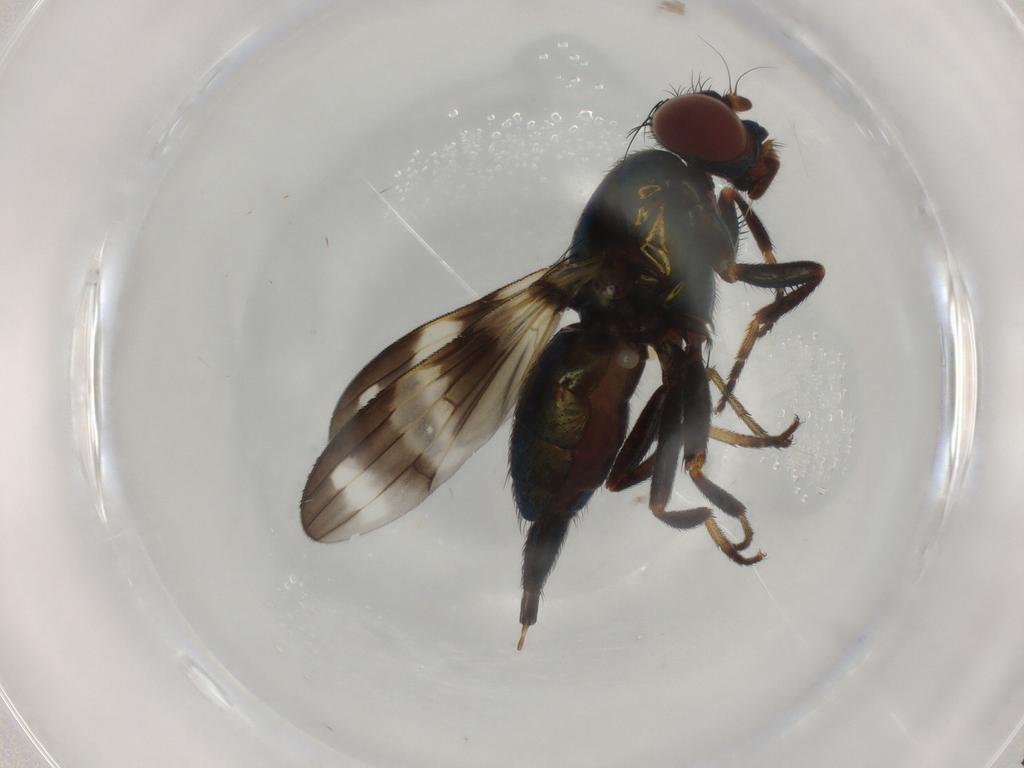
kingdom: Animalia
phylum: Arthropoda
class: Insecta
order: Diptera
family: Ulidiidae
